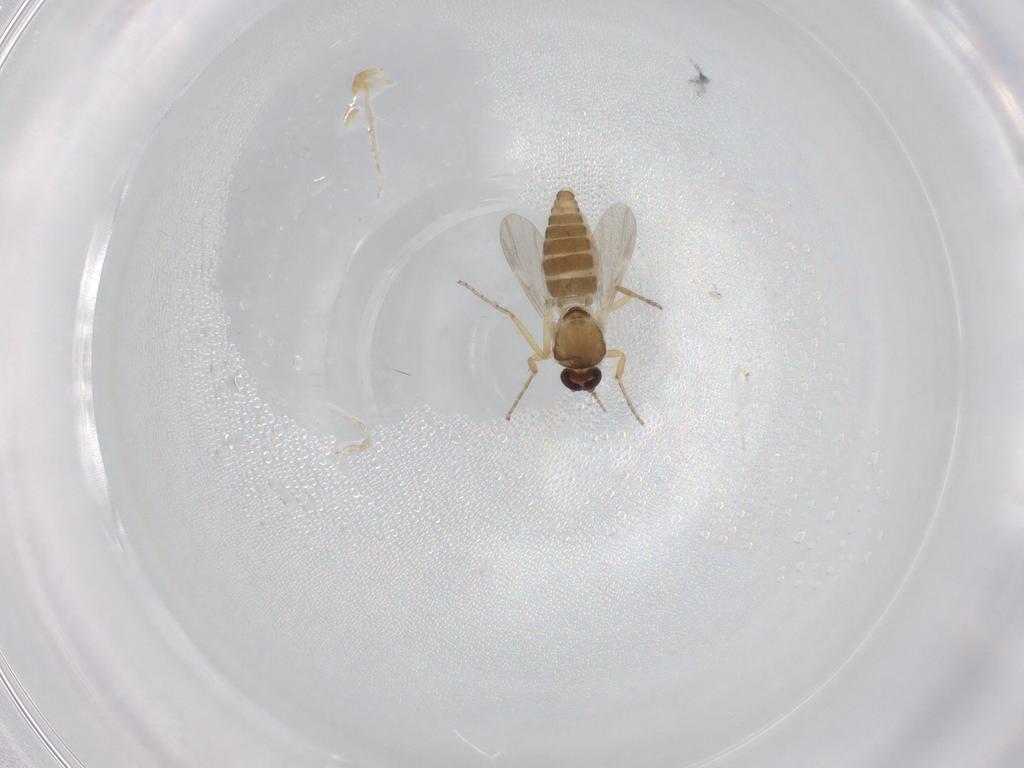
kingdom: Animalia
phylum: Arthropoda
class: Insecta
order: Diptera
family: Ceratopogonidae
